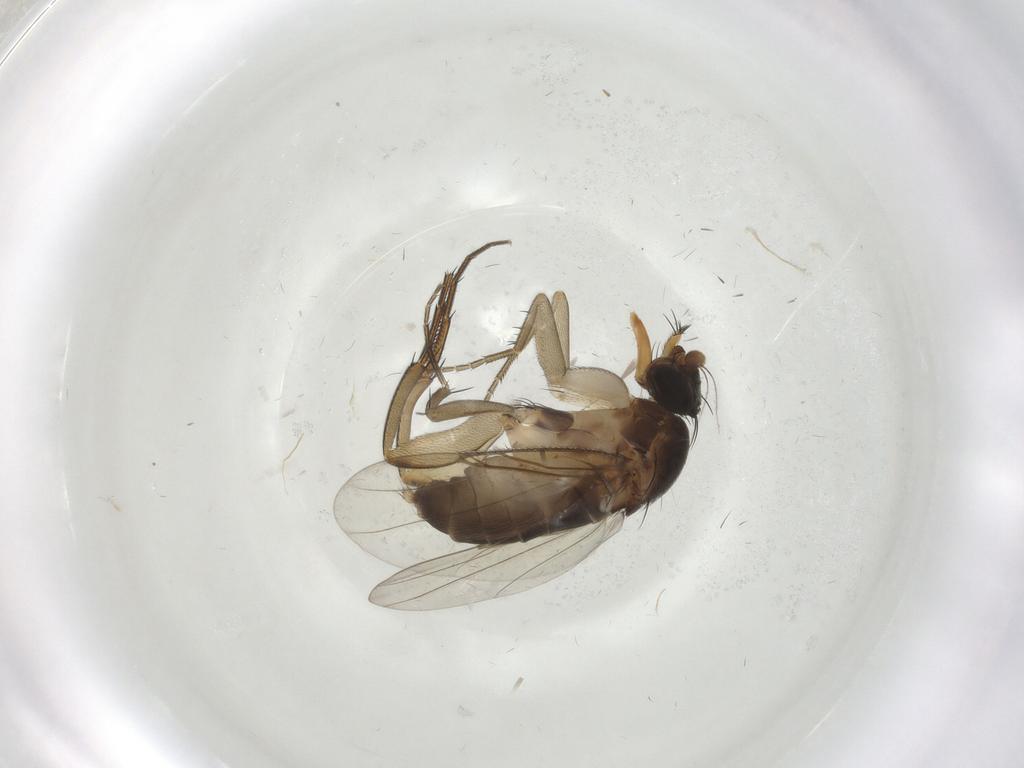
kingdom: Animalia
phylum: Arthropoda
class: Insecta
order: Diptera
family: Phoridae
